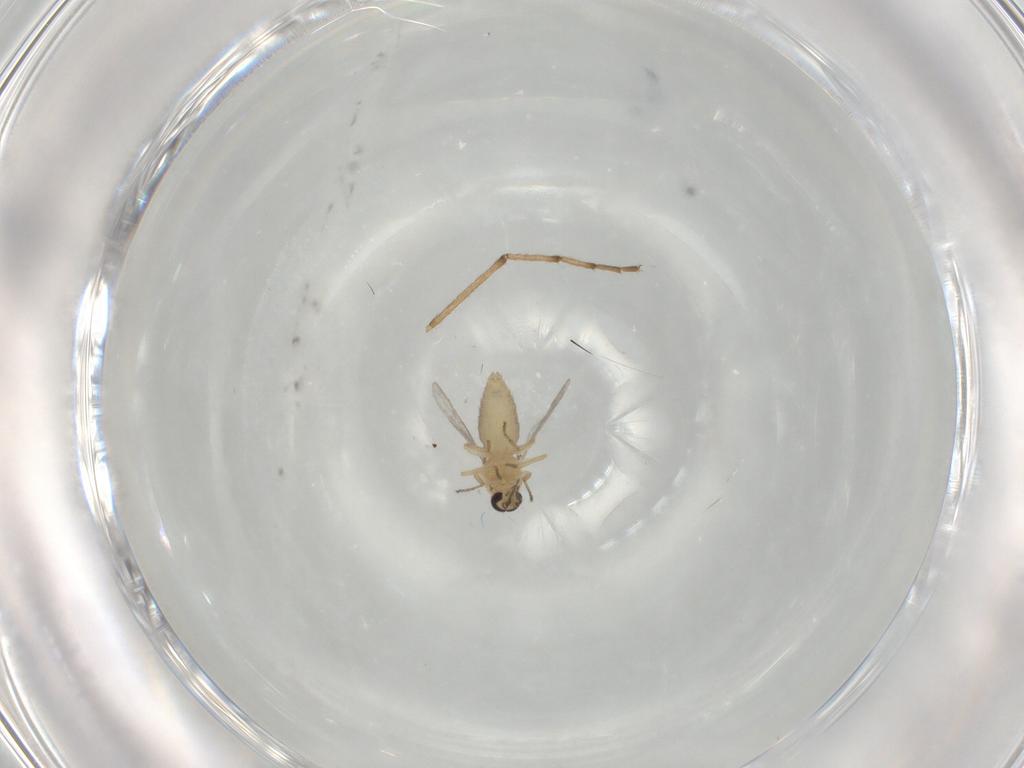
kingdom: Animalia
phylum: Arthropoda
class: Insecta
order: Diptera
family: Ceratopogonidae
